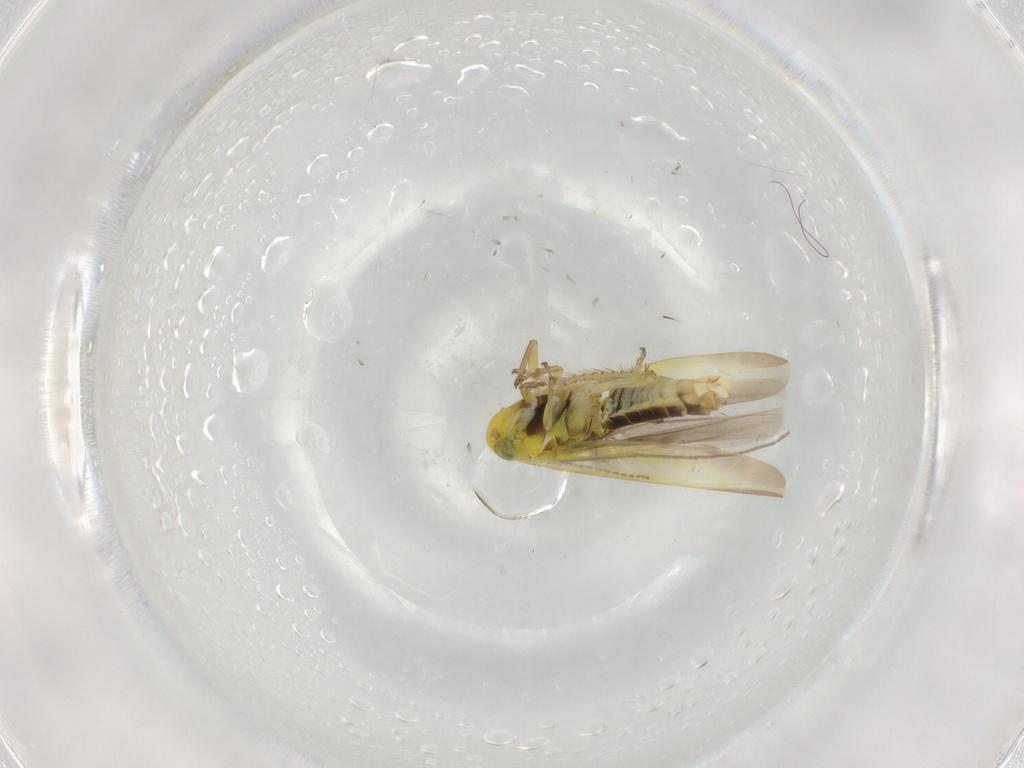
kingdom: Animalia
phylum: Arthropoda
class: Insecta
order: Hemiptera
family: Cicadellidae
